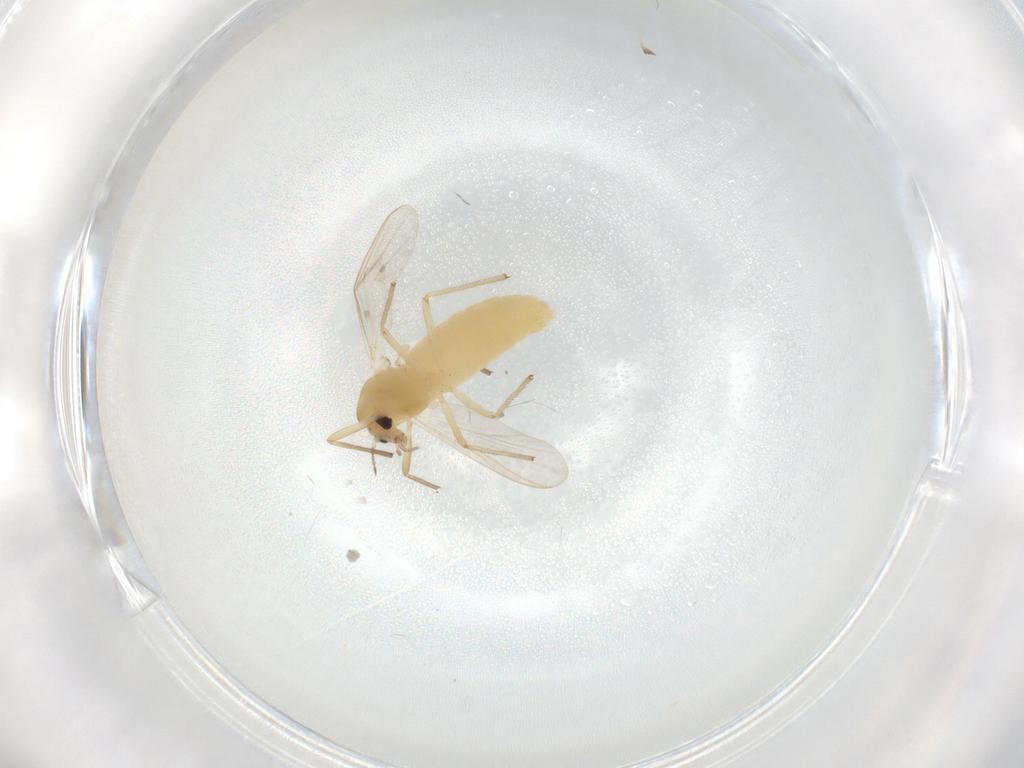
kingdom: Animalia
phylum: Arthropoda
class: Insecta
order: Diptera
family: Chironomidae
